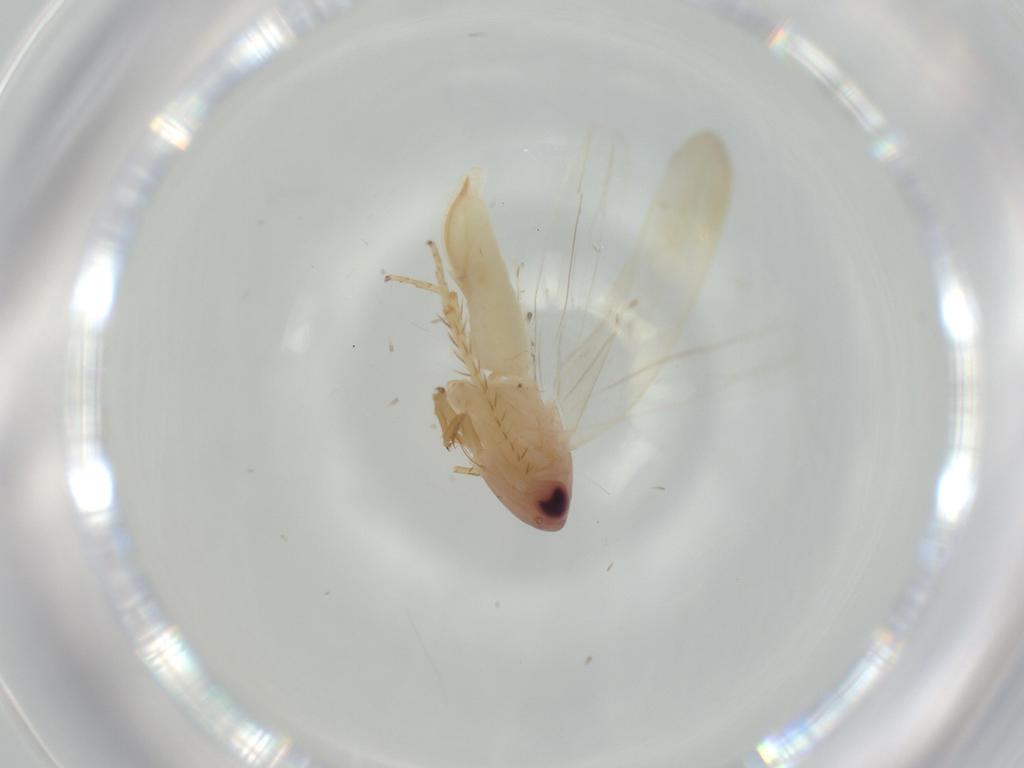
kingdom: Animalia
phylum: Arthropoda
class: Insecta
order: Hemiptera
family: Cicadellidae
